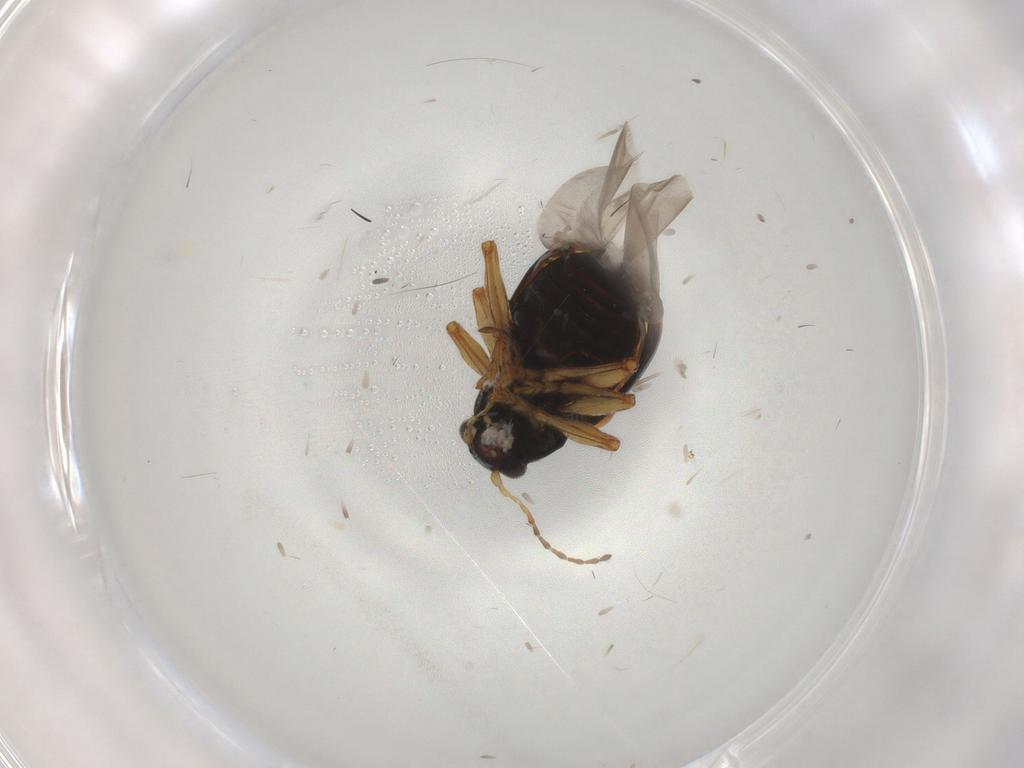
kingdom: Animalia
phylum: Arthropoda
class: Insecta
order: Coleoptera
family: Chrysomelidae
